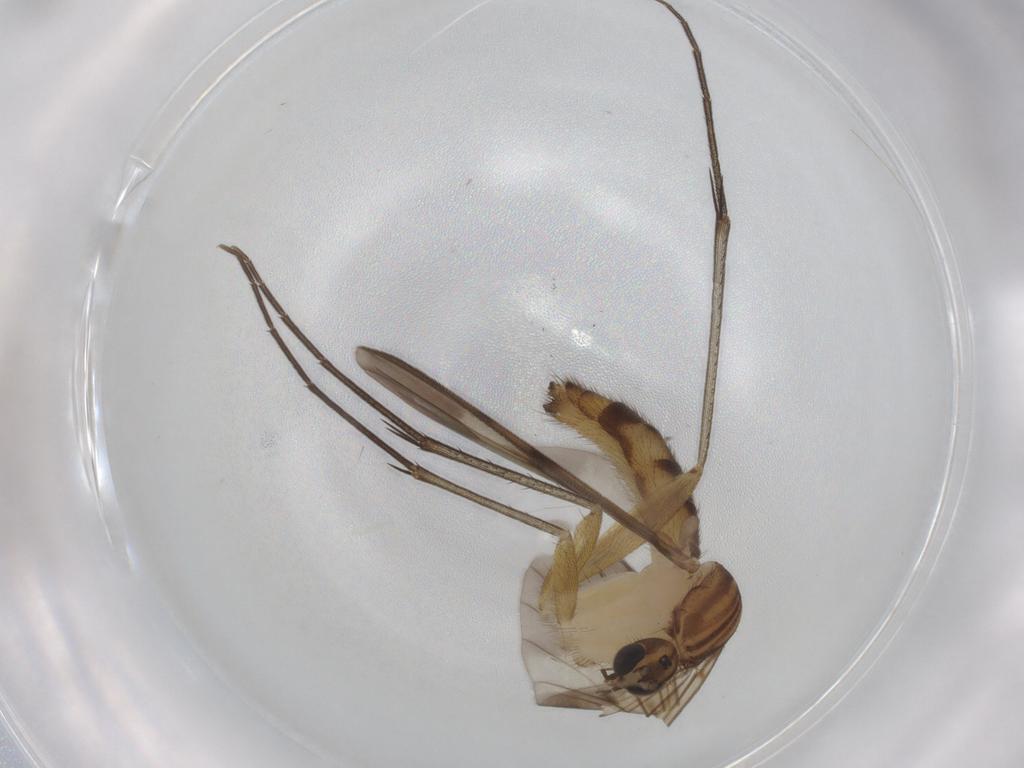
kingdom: Animalia
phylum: Arthropoda
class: Insecta
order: Diptera
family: Mycetophilidae
